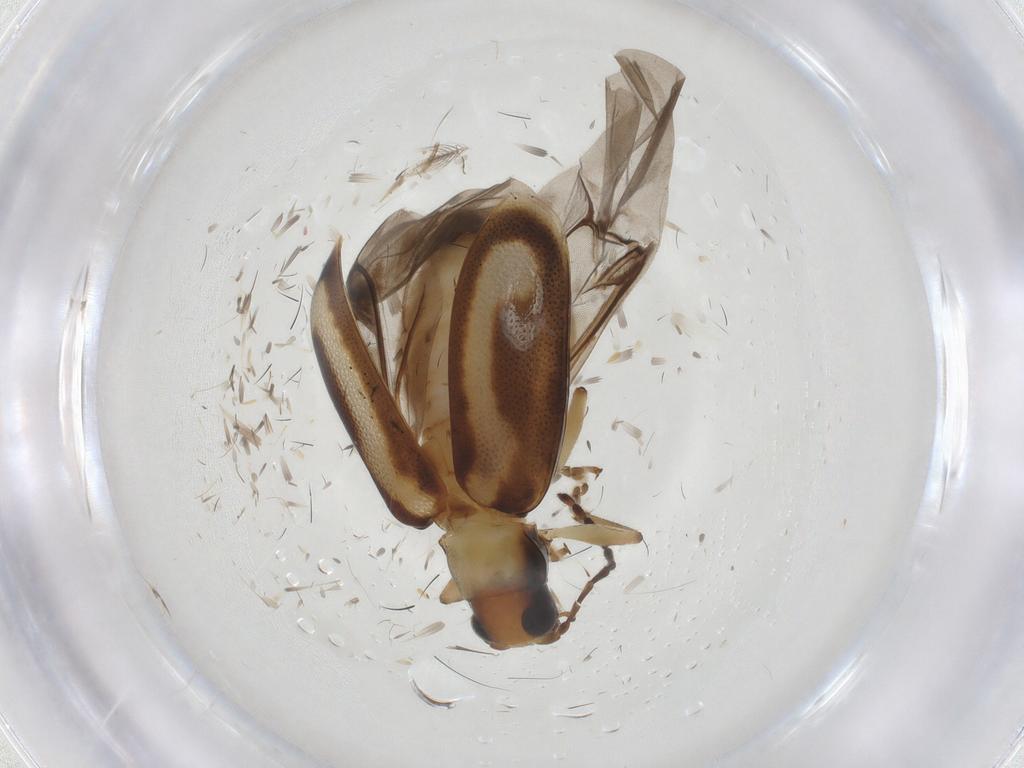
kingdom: Animalia
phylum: Arthropoda
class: Insecta
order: Coleoptera
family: Chrysomelidae
